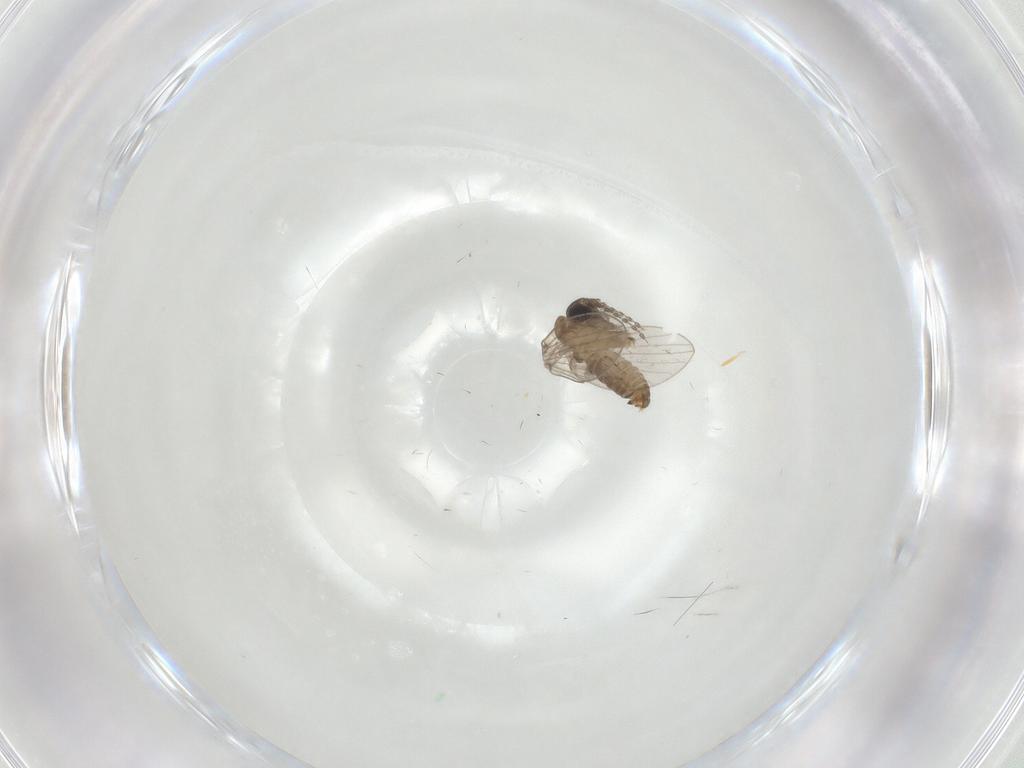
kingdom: Animalia
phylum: Arthropoda
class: Insecta
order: Diptera
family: Psychodidae
